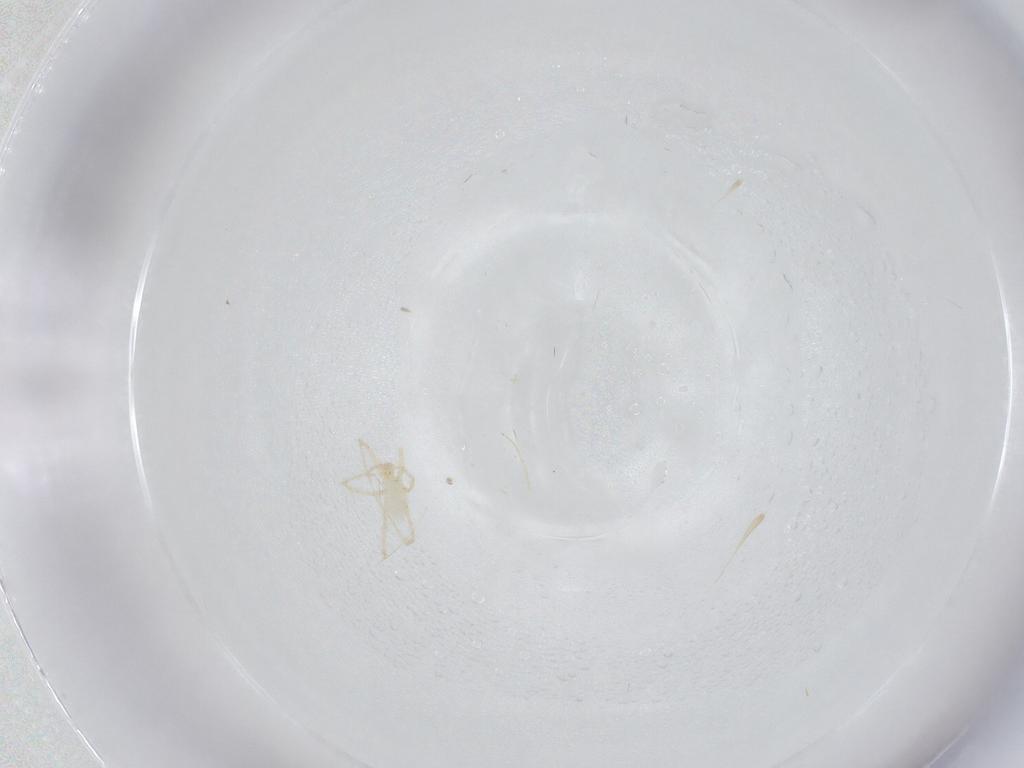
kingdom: Animalia
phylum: Arthropoda
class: Arachnida
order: Trombidiformes
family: Erythraeidae
